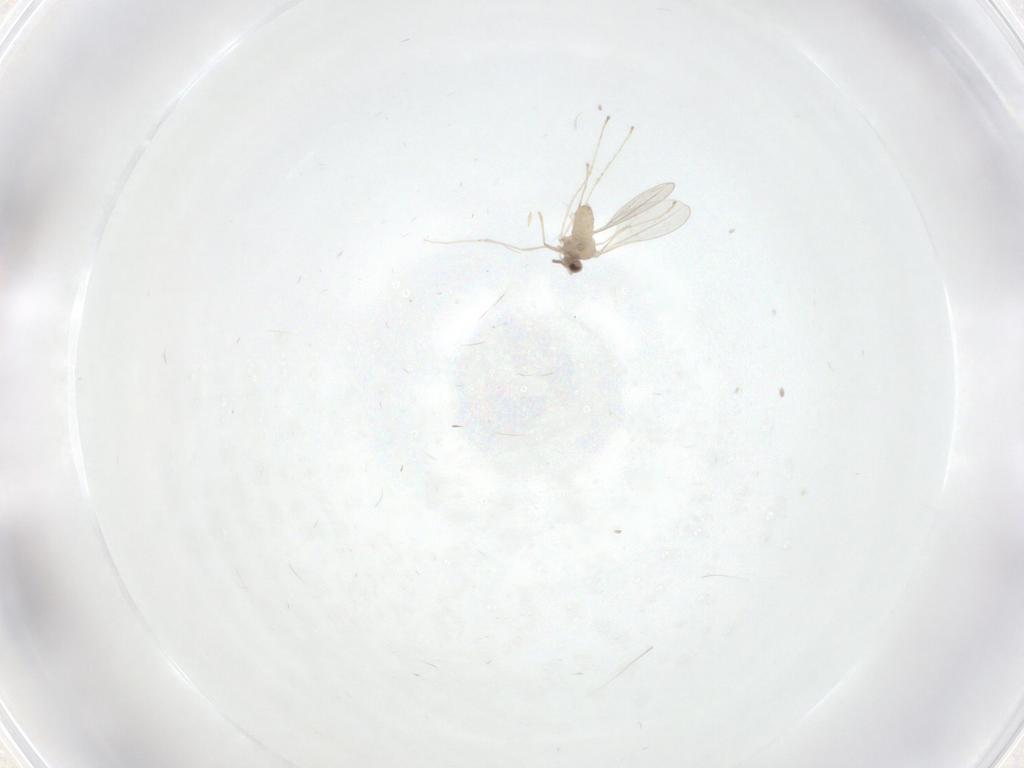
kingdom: Animalia
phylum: Arthropoda
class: Insecta
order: Diptera
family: Cecidomyiidae
